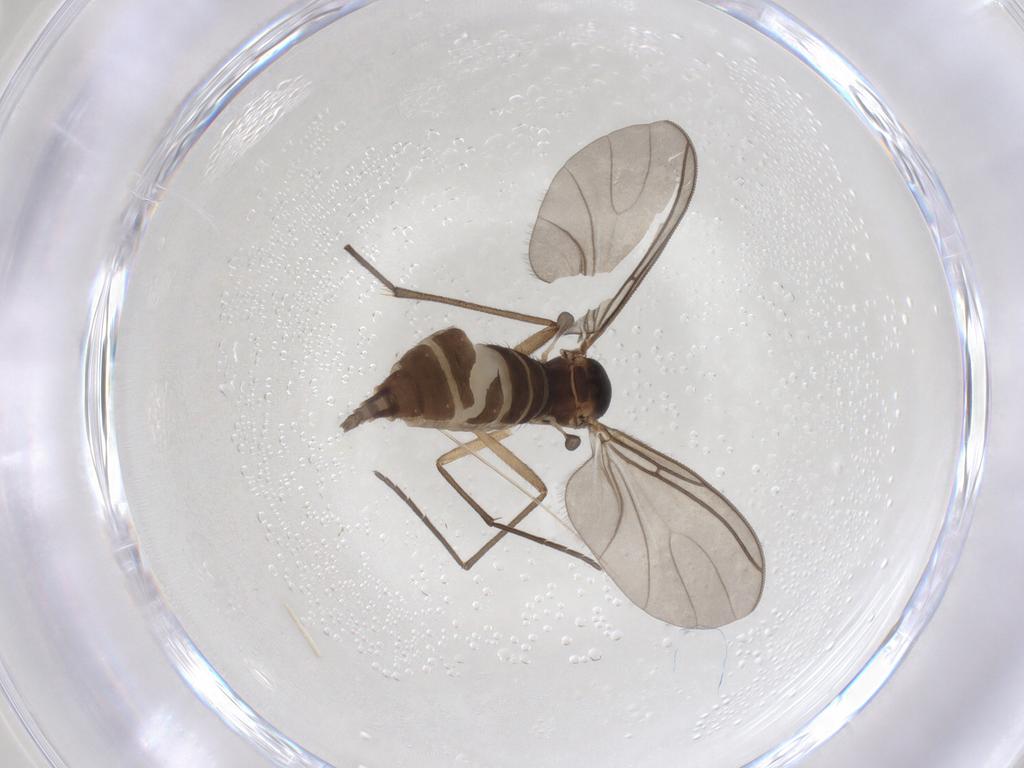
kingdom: Animalia
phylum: Arthropoda
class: Insecta
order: Diptera
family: Sciaridae
